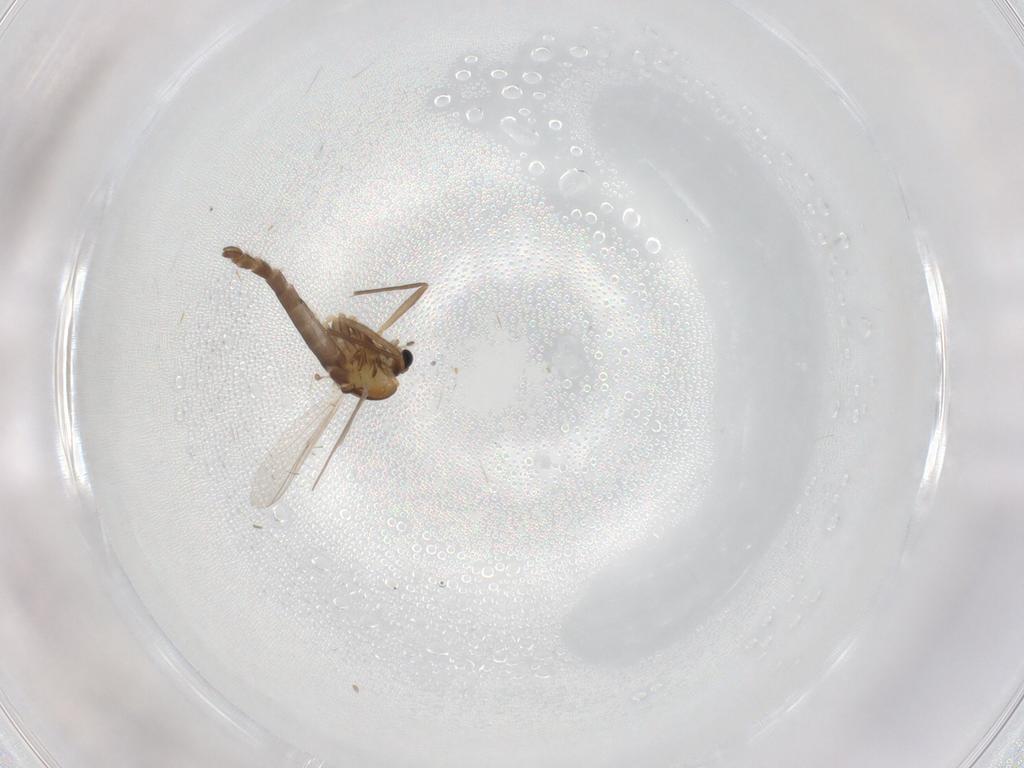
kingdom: Animalia
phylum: Arthropoda
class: Insecta
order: Diptera
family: Chironomidae
